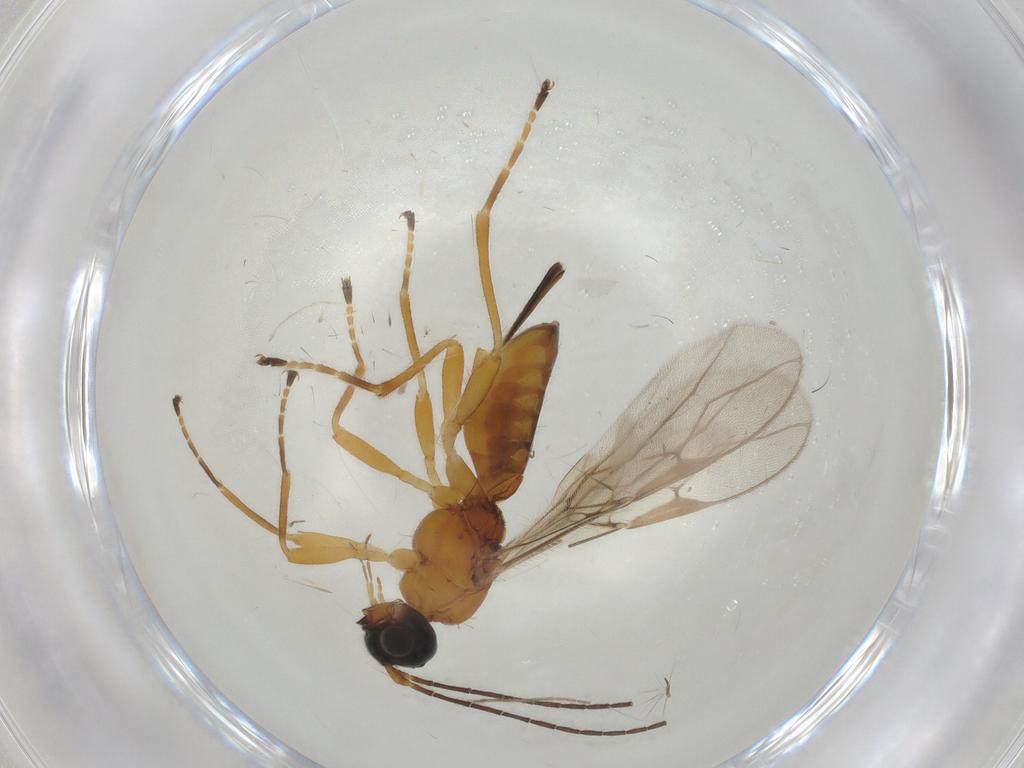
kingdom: Animalia
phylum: Arthropoda
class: Insecta
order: Hymenoptera
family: Braconidae
